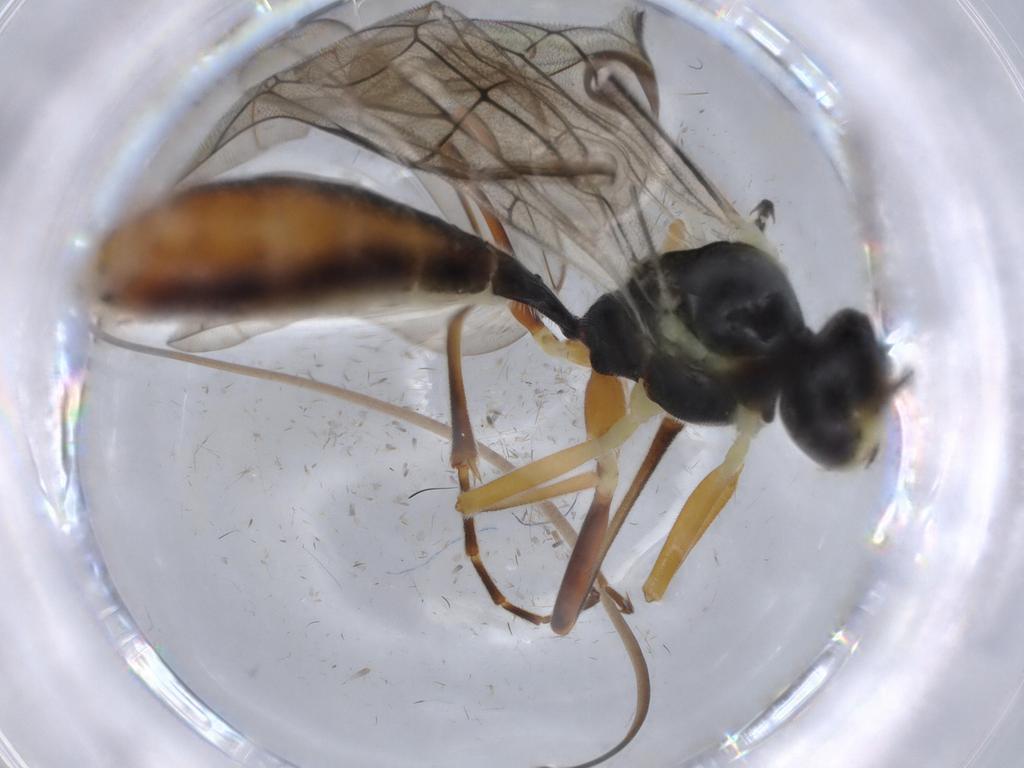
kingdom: Animalia
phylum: Arthropoda
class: Insecta
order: Hymenoptera
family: Figitidae
